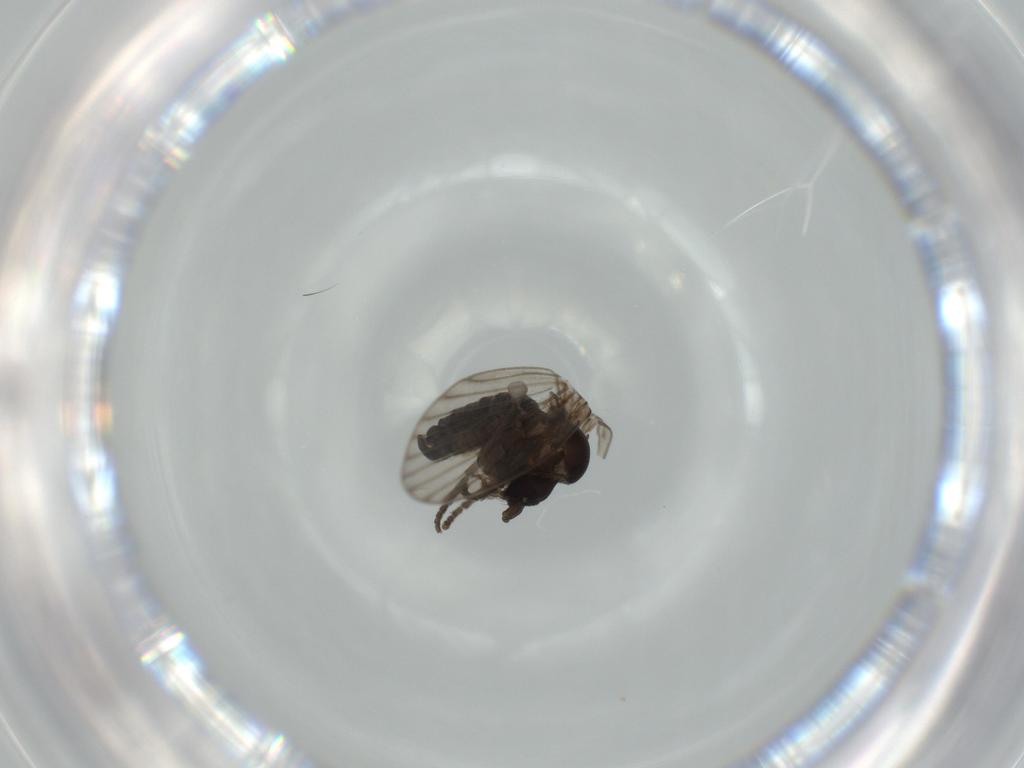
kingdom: Animalia
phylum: Arthropoda
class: Insecta
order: Diptera
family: Psychodidae
